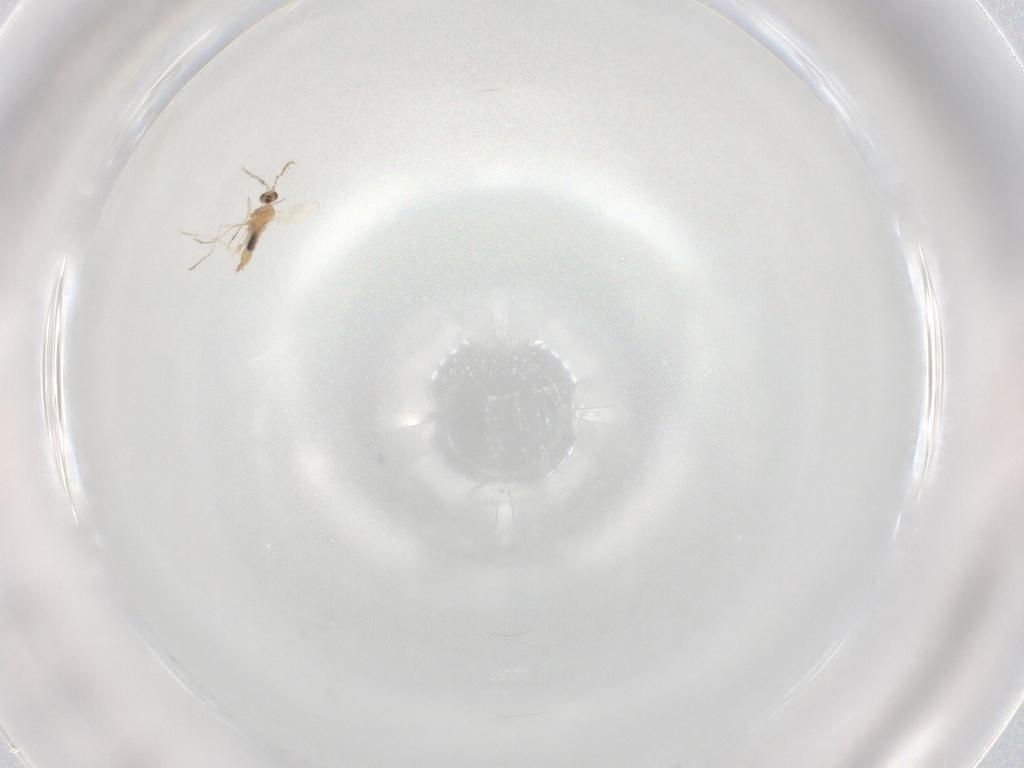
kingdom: Animalia
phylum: Arthropoda
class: Insecta
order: Diptera
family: Cecidomyiidae
